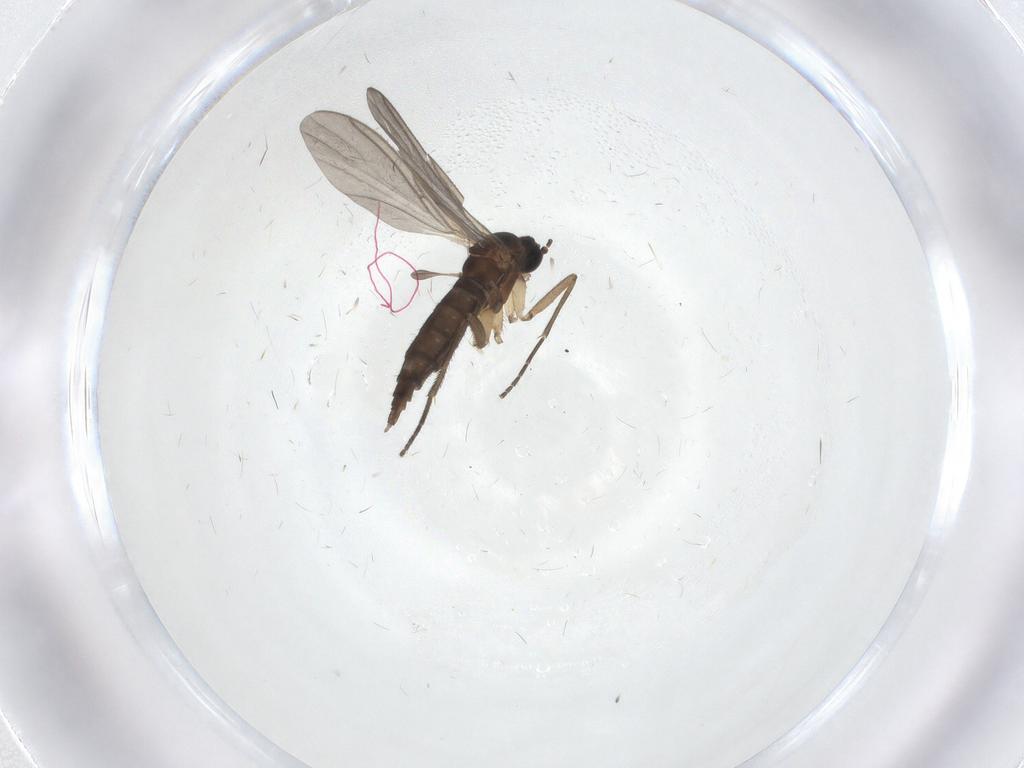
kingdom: Animalia
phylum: Arthropoda
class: Insecta
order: Diptera
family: Sciaridae
